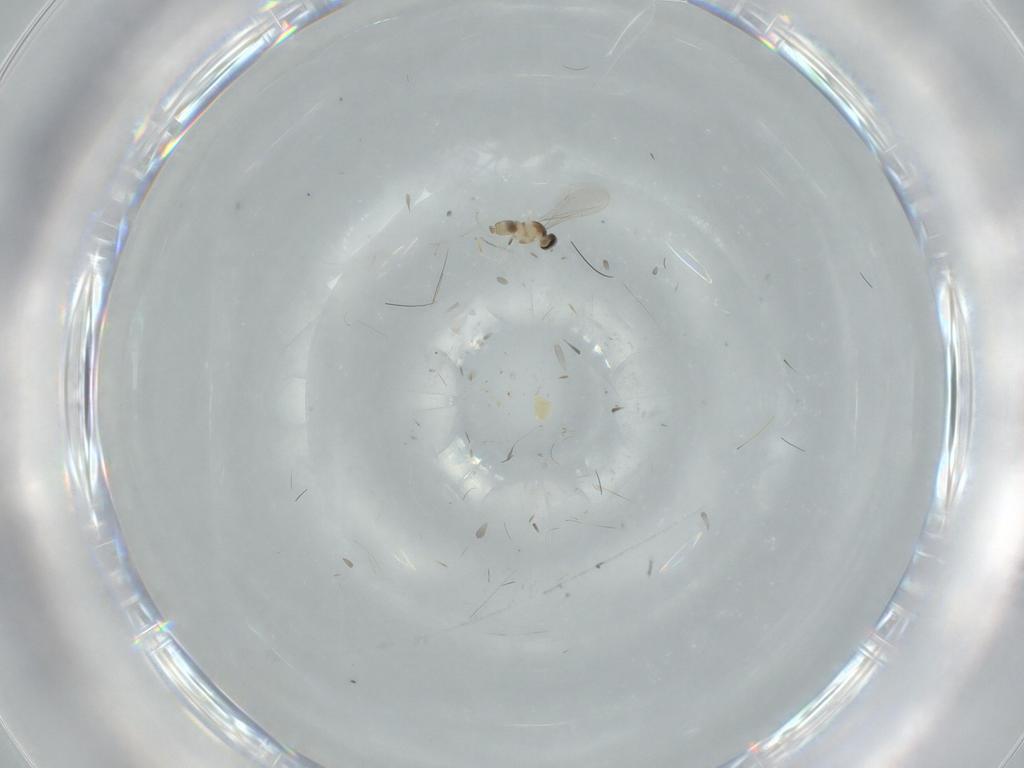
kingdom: Animalia
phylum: Arthropoda
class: Insecta
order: Diptera
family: Cecidomyiidae
